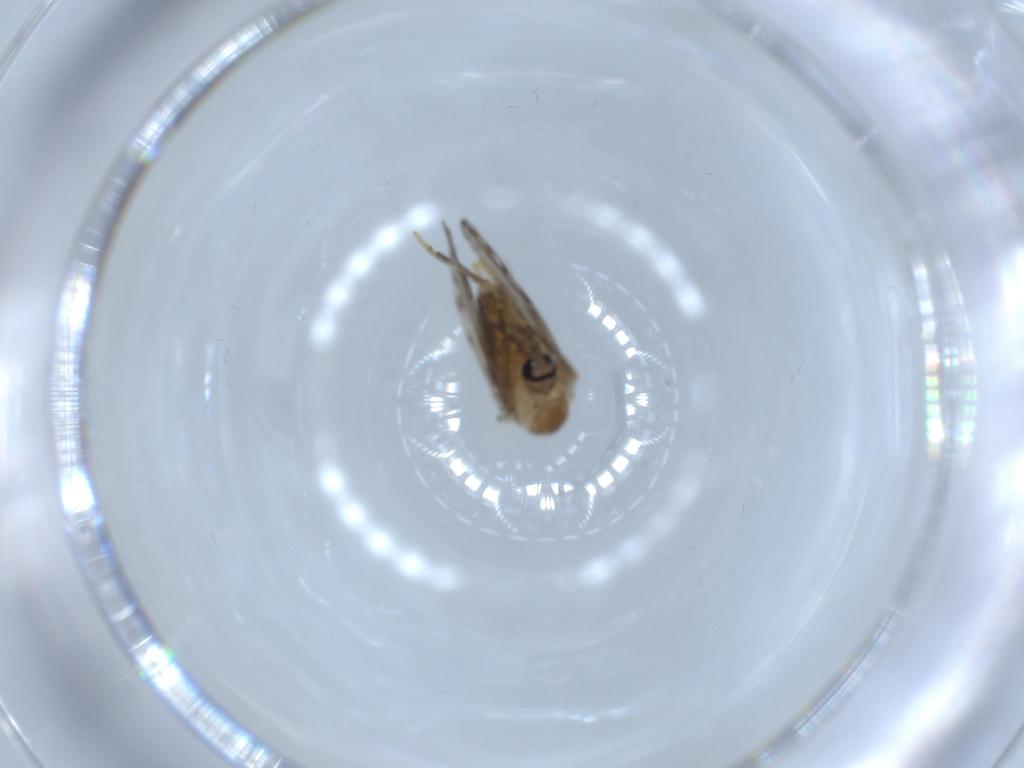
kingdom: Animalia
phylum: Arthropoda
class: Insecta
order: Diptera
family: Psychodidae
